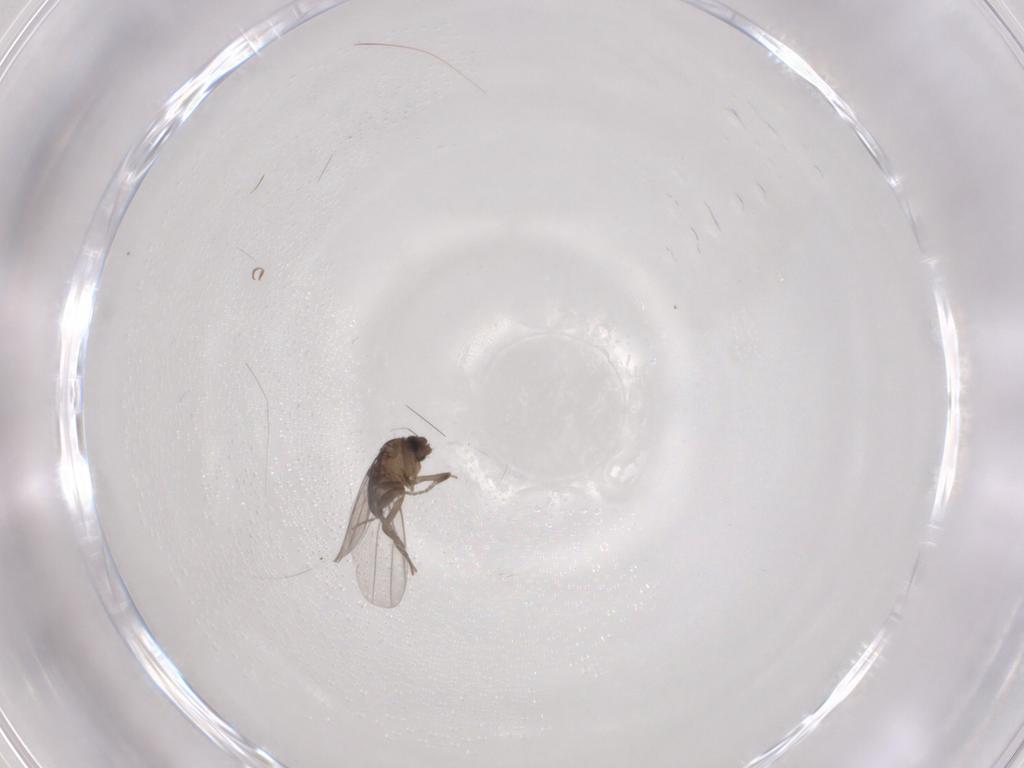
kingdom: Animalia
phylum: Arthropoda
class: Insecta
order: Diptera
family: Phoridae
